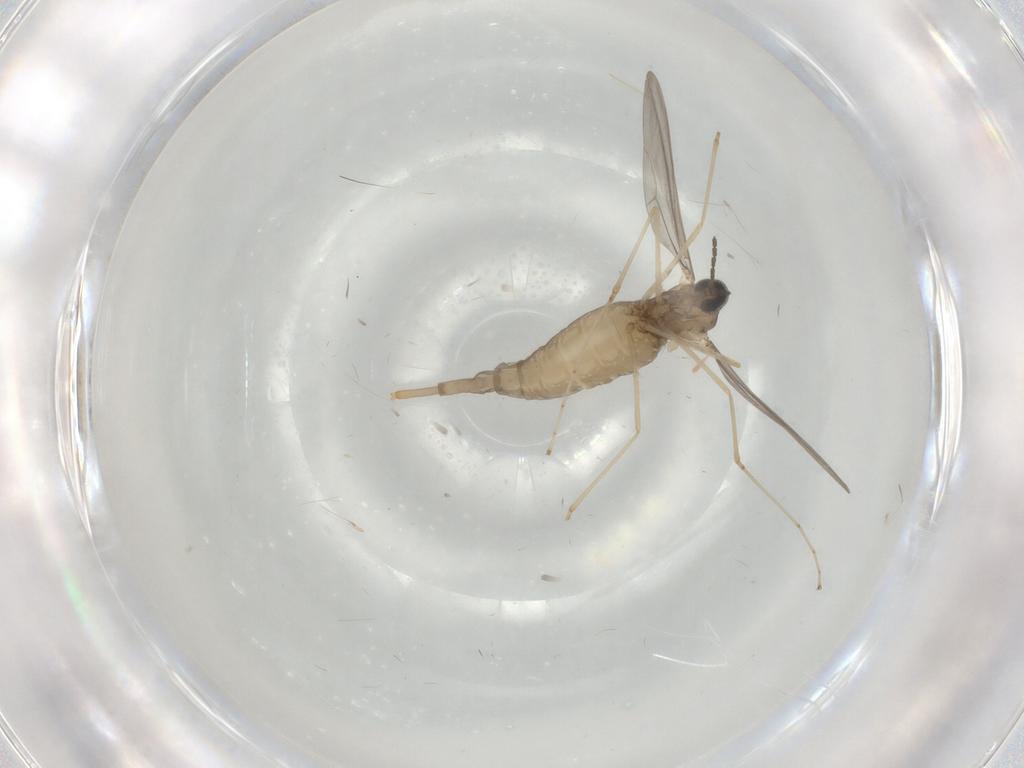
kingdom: Animalia
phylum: Arthropoda
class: Insecta
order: Diptera
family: Cecidomyiidae
